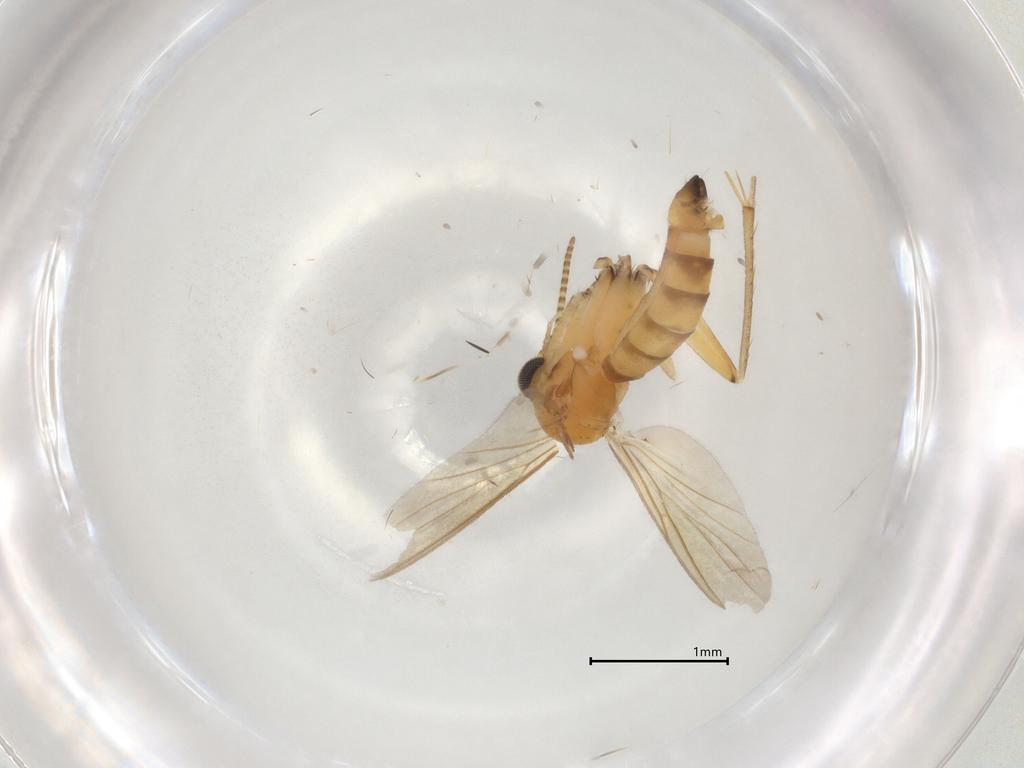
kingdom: Animalia
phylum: Arthropoda
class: Insecta
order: Diptera
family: Mycetophilidae
